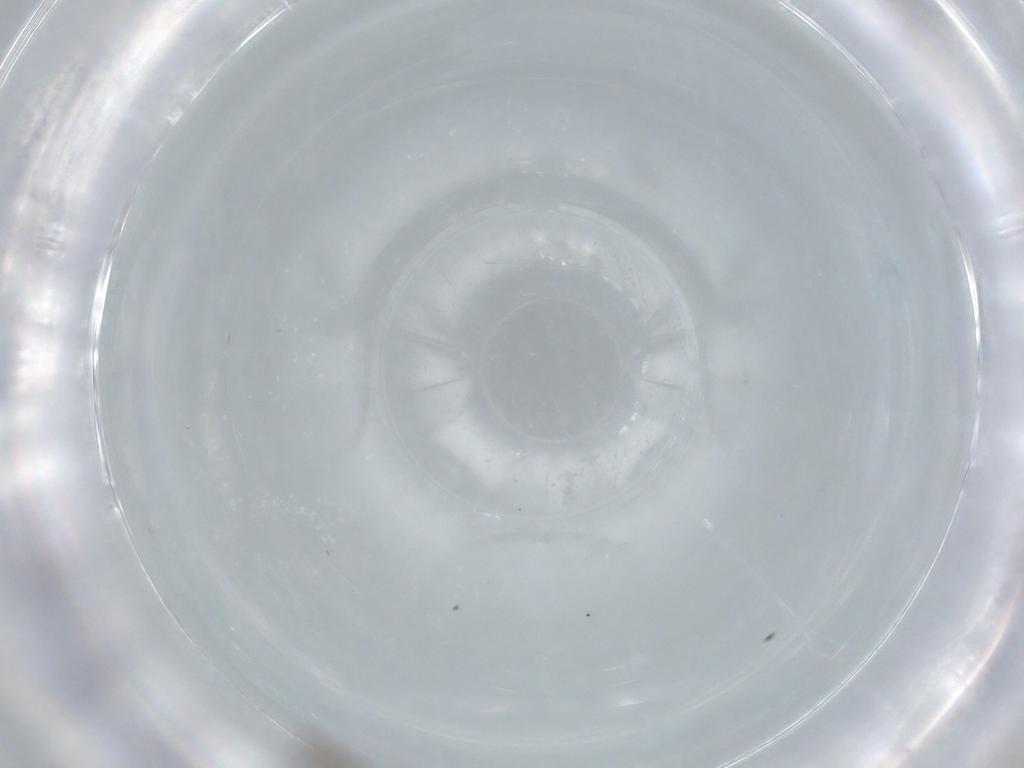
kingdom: Animalia
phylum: Arthropoda
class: Insecta
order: Diptera
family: Cecidomyiidae
